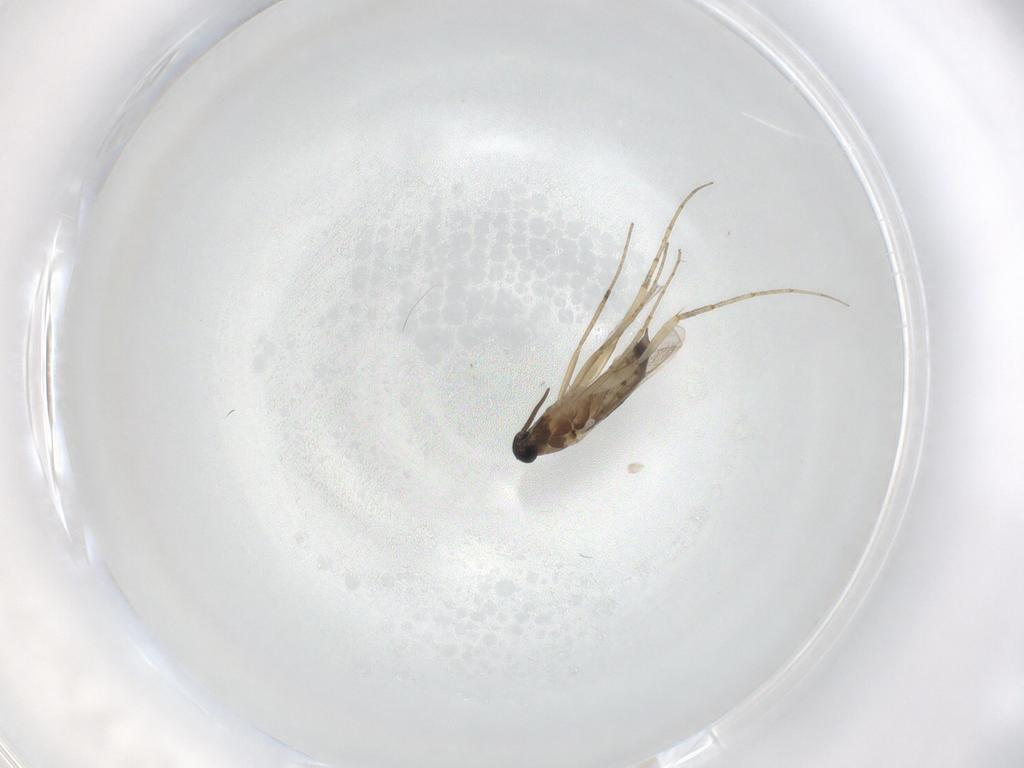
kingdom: Animalia
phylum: Arthropoda
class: Insecta
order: Diptera
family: Cecidomyiidae
